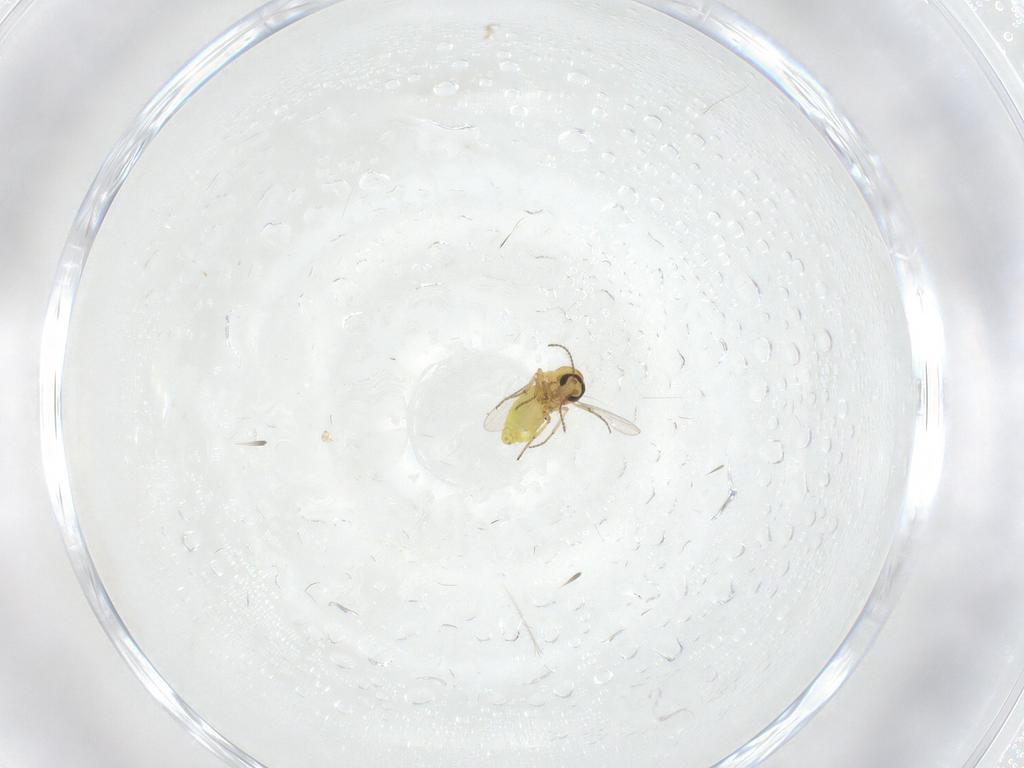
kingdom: Animalia
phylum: Arthropoda
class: Insecta
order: Diptera
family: Ceratopogonidae
